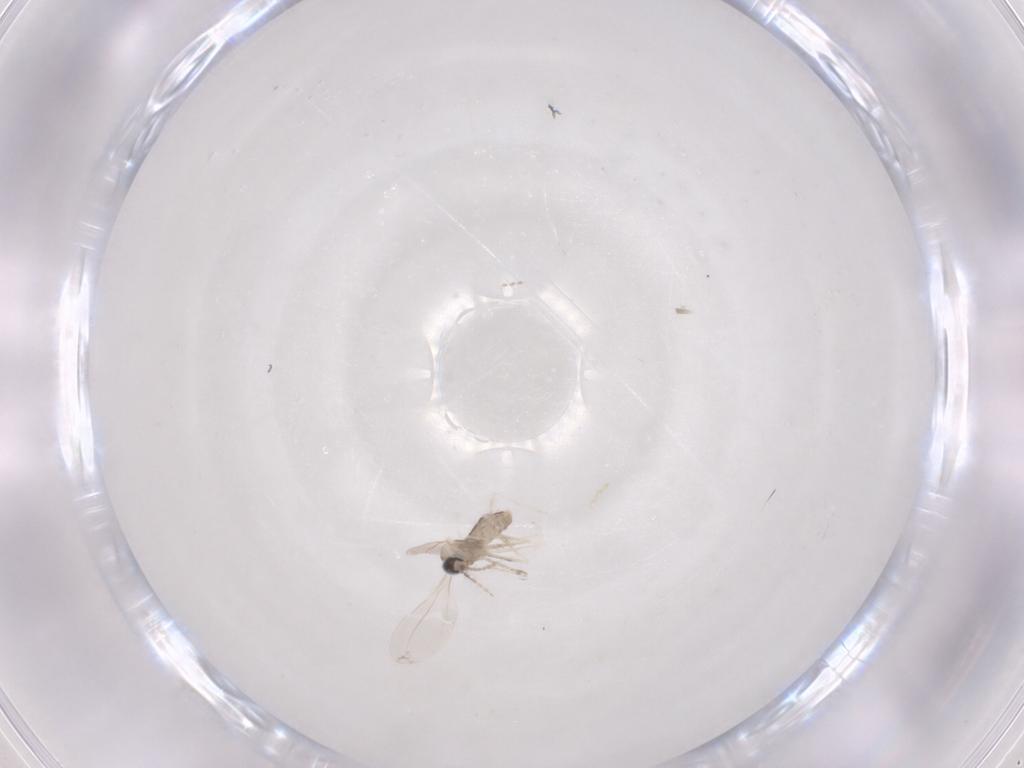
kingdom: Animalia
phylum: Arthropoda
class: Insecta
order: Diptera
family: Cecidomyiidae
